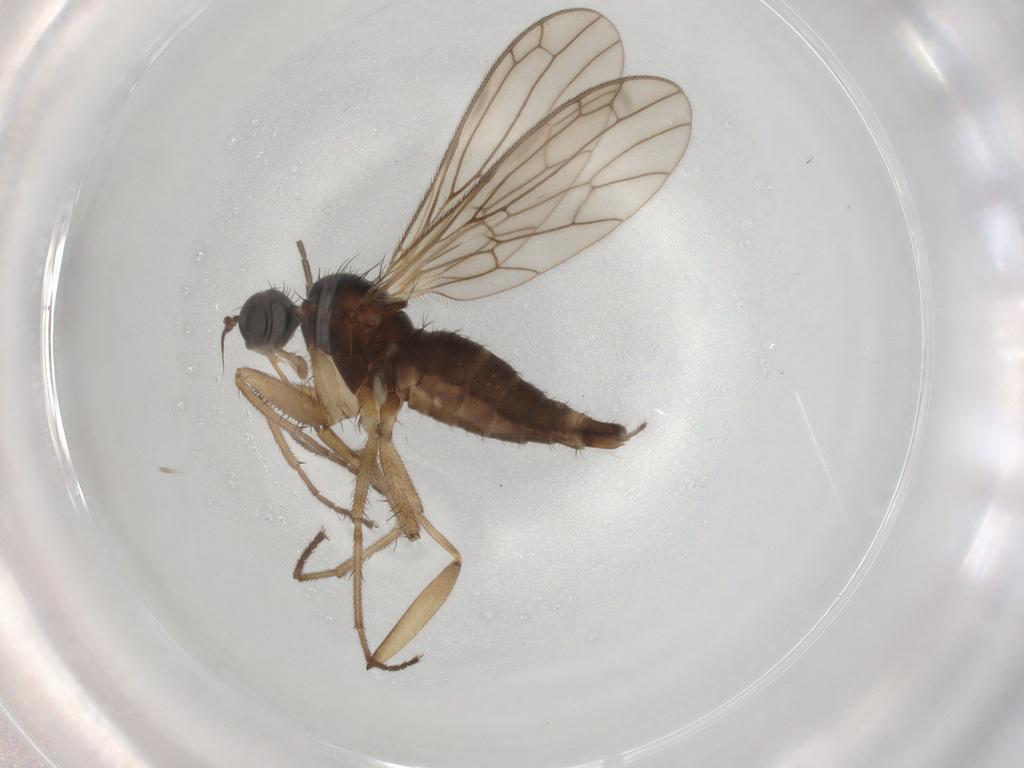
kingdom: Animalia
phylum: Arthropoda
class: Insecta
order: Diptera
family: Empididae
